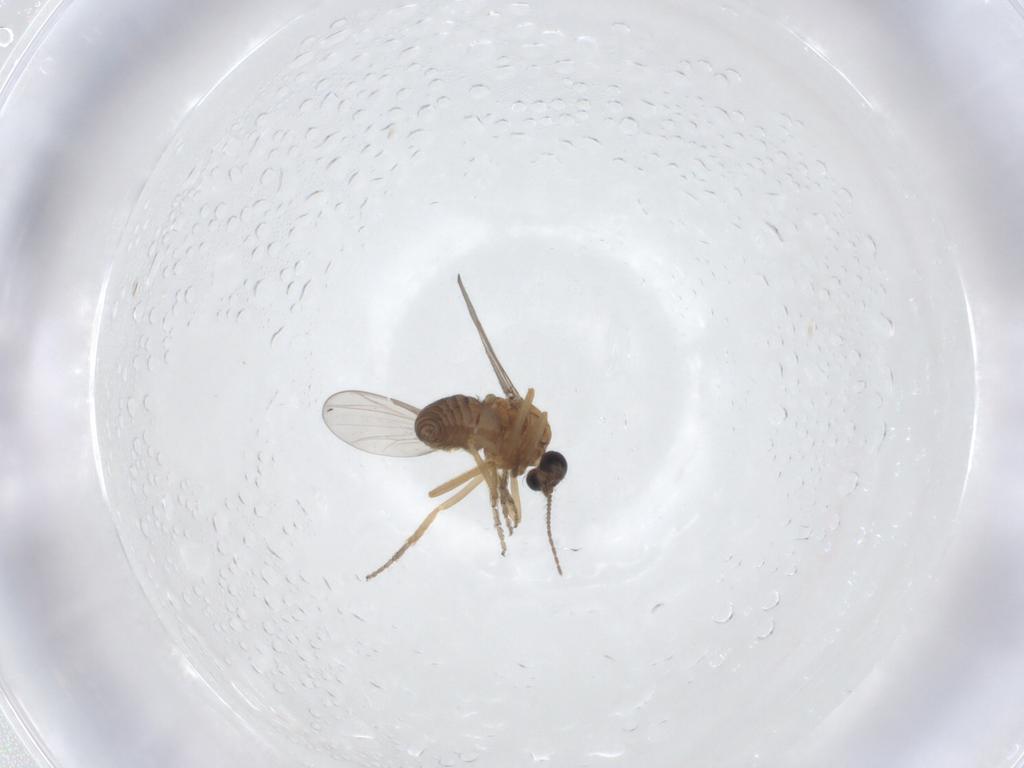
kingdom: Animalia
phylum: Arthropoda
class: Insecta
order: Diptera
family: Ceratopogonidae
